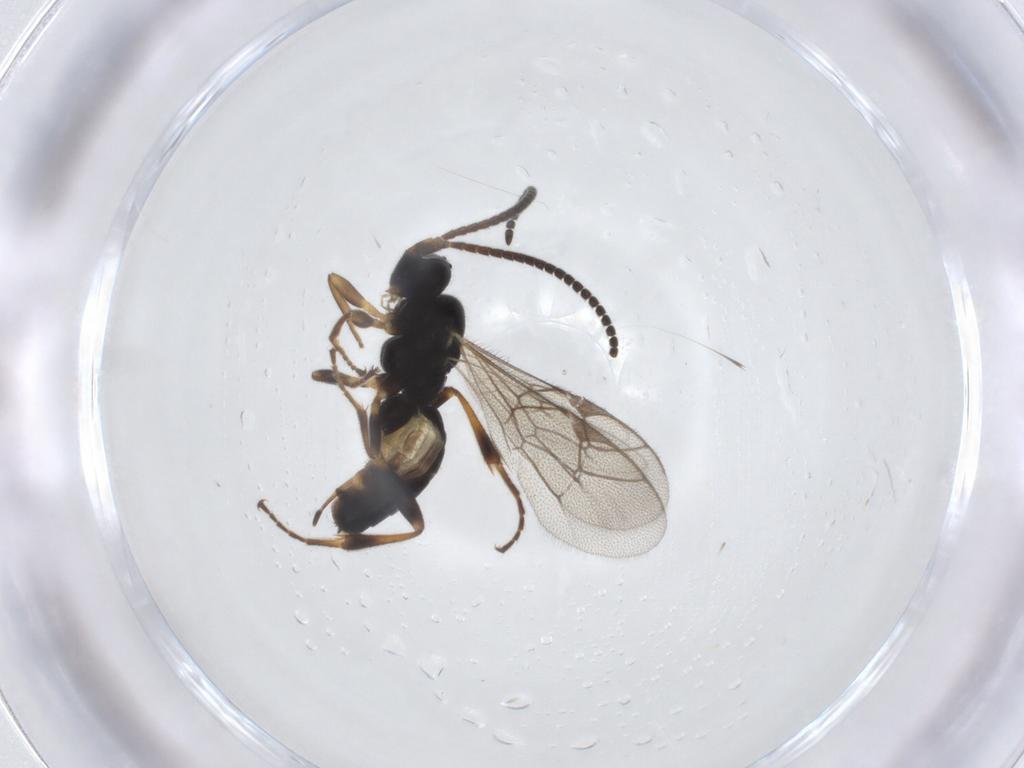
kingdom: Animalia
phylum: Arthropoda
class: Insecta
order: Hymenoptera
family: Ichneumonidae
